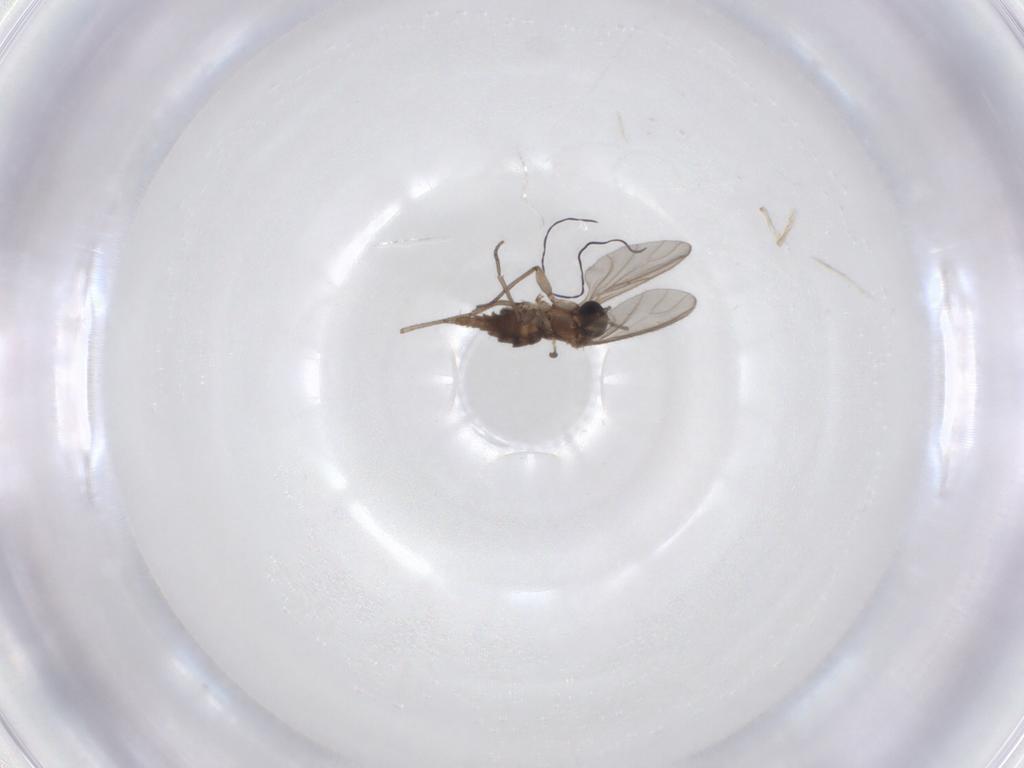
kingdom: Animalia
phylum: Arthropoda
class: Insecta
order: Diptera
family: Sciaridae
